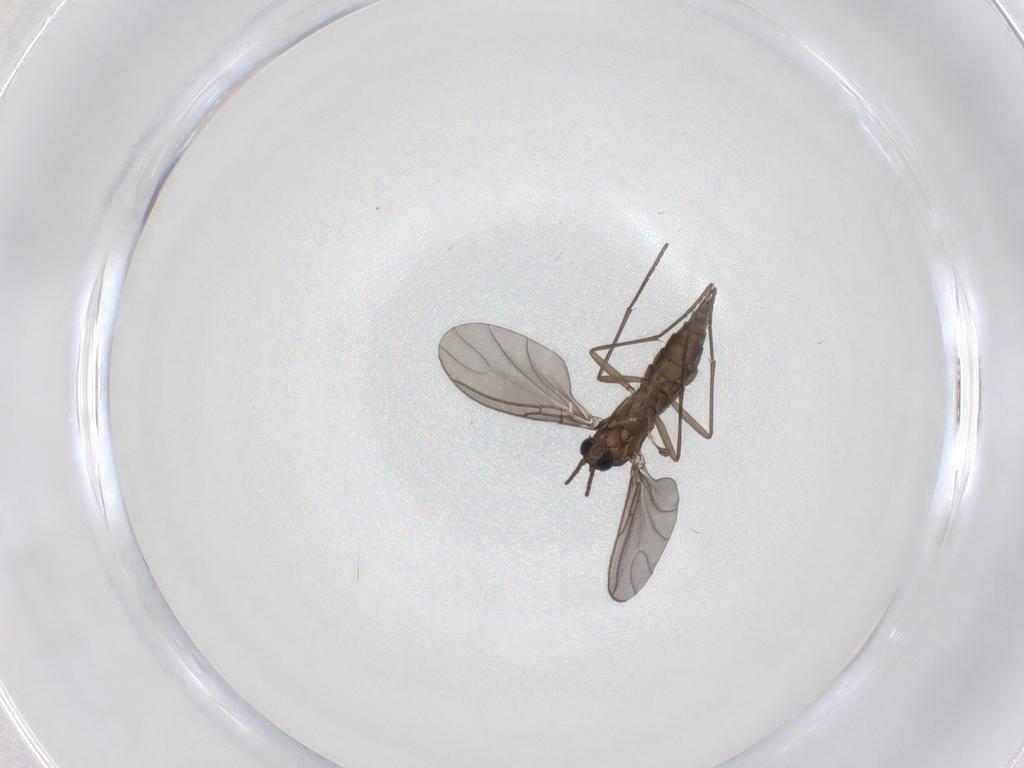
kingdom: Animalia
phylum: Arthropoda
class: Insecta
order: Diptera
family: Sciaridae
